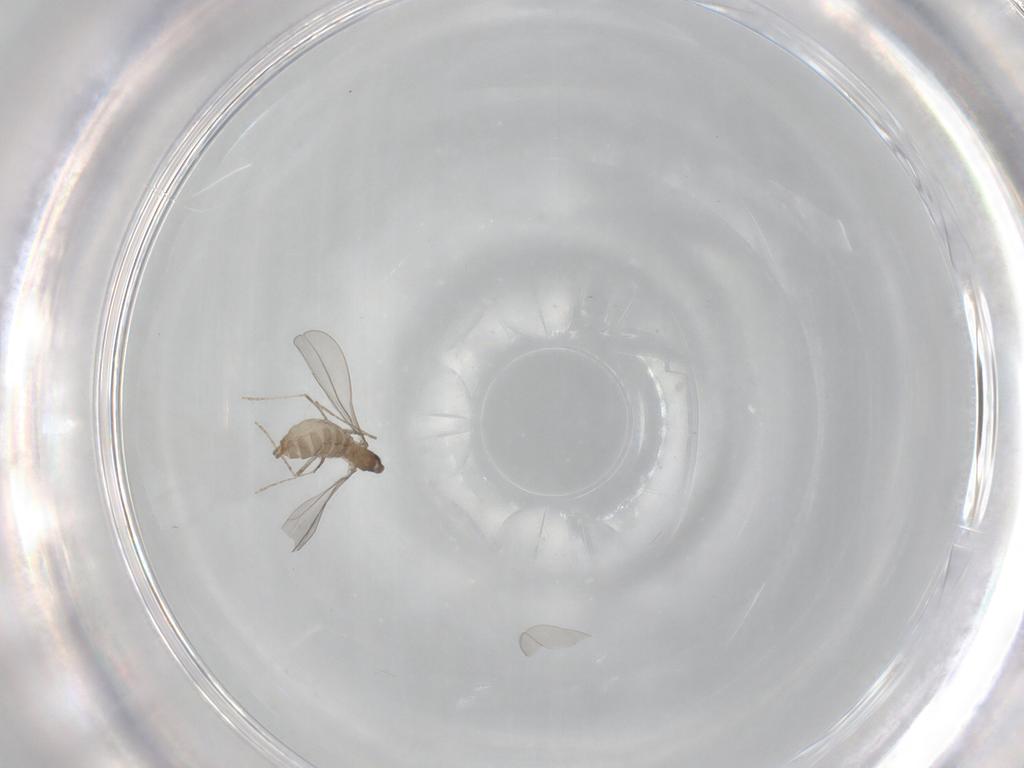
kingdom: Animalia
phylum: Arthropoda
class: Insecta
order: Diptera
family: Cecidomyiidae
